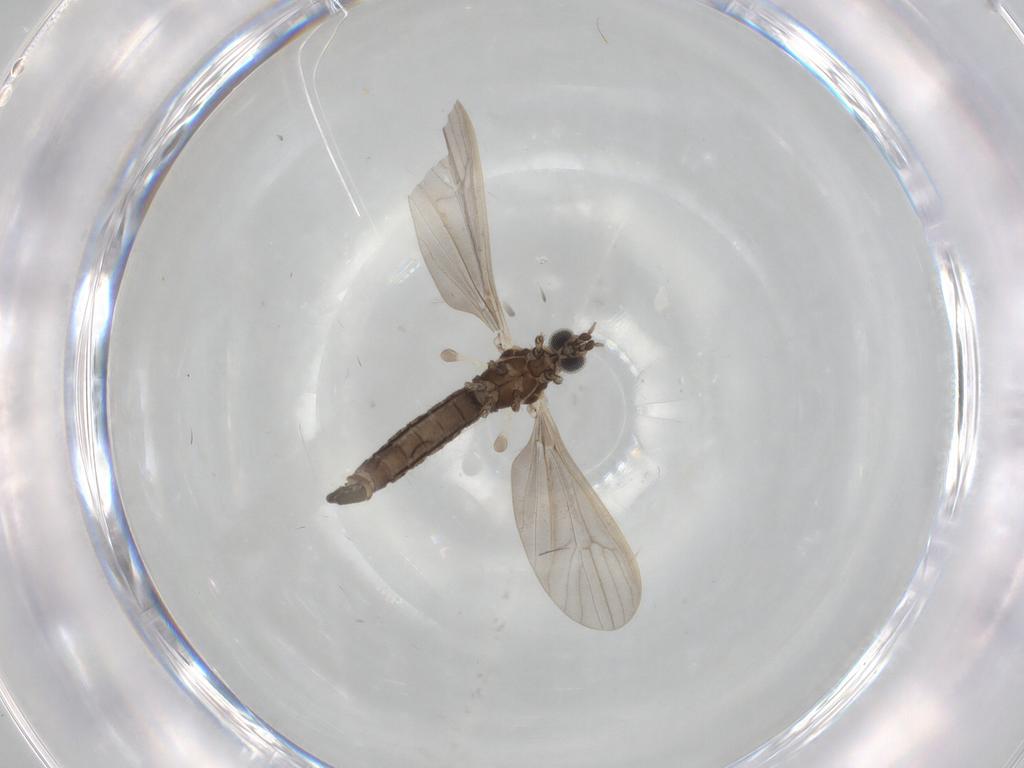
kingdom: Animalia
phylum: Arthropoda
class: Insecta
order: Diptera
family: Limoniidae
